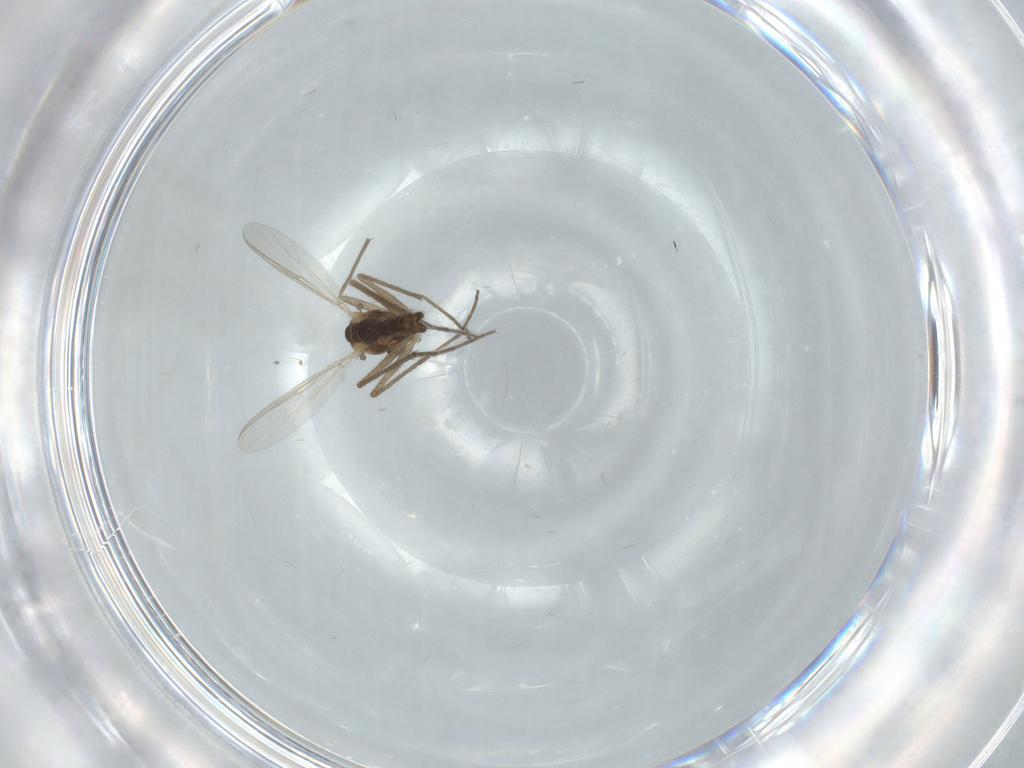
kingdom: Animalia
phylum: Arthropoda
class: Insecta
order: Diptera
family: Chironomidae
